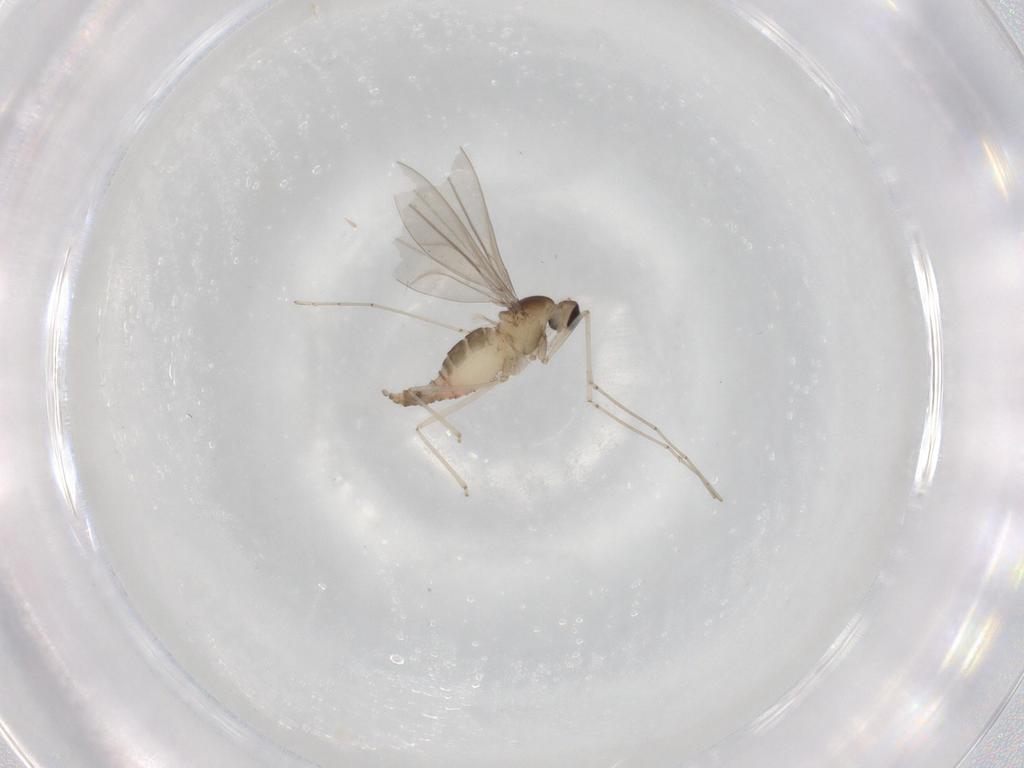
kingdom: Animalia
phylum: Arthropoda
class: Insecta
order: Diptera
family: Cecidomyiidae
